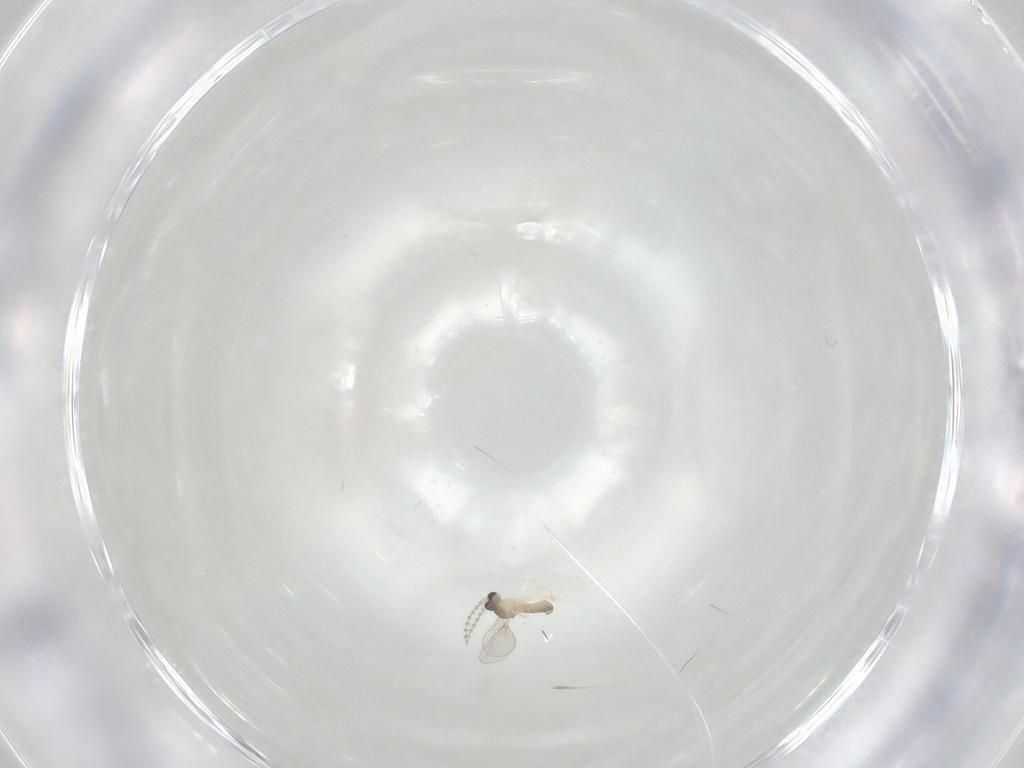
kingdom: Animalia
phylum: Arthropoda
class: Insecta
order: Diptera
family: Cecidomyiidae
